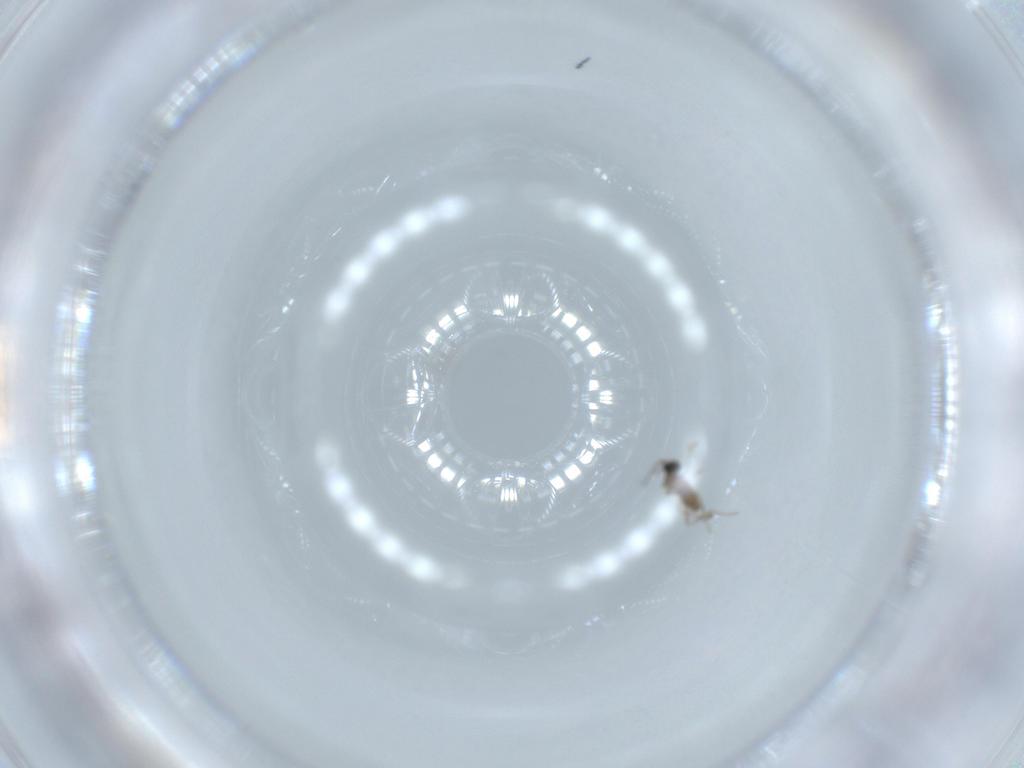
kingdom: Animalia
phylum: Arthropoda
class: Insecta
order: Diptera
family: Cecidomyiidae
